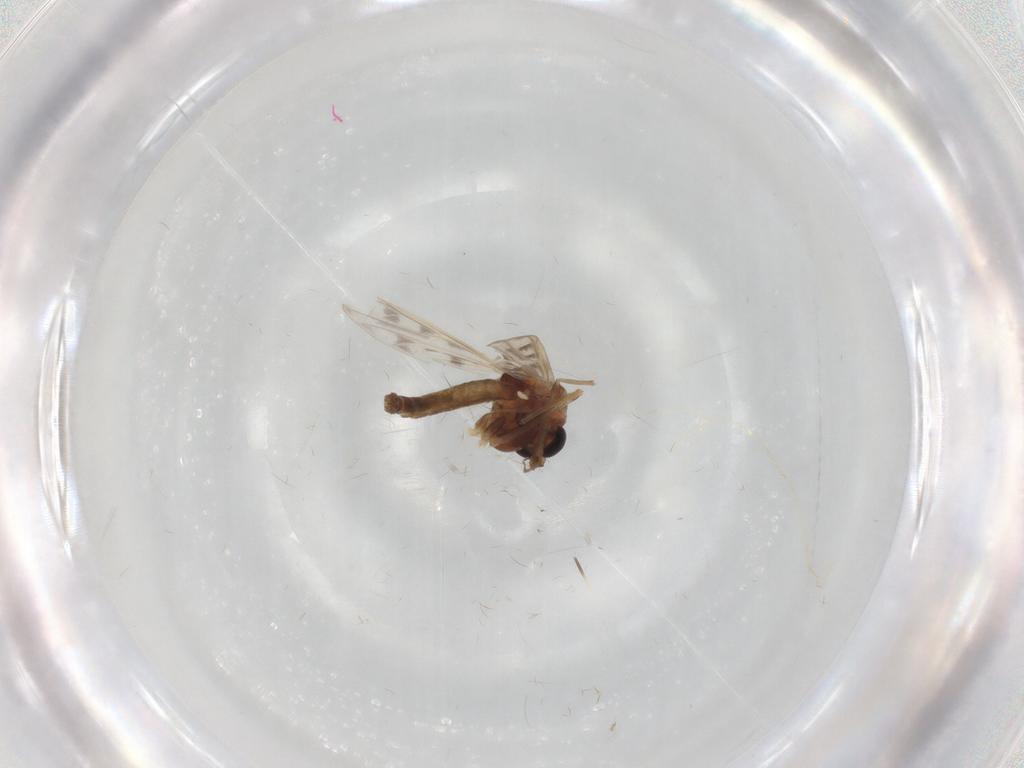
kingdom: Animalia
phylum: Arthropoda
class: Insecta
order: Diptera
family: Chironomidae
